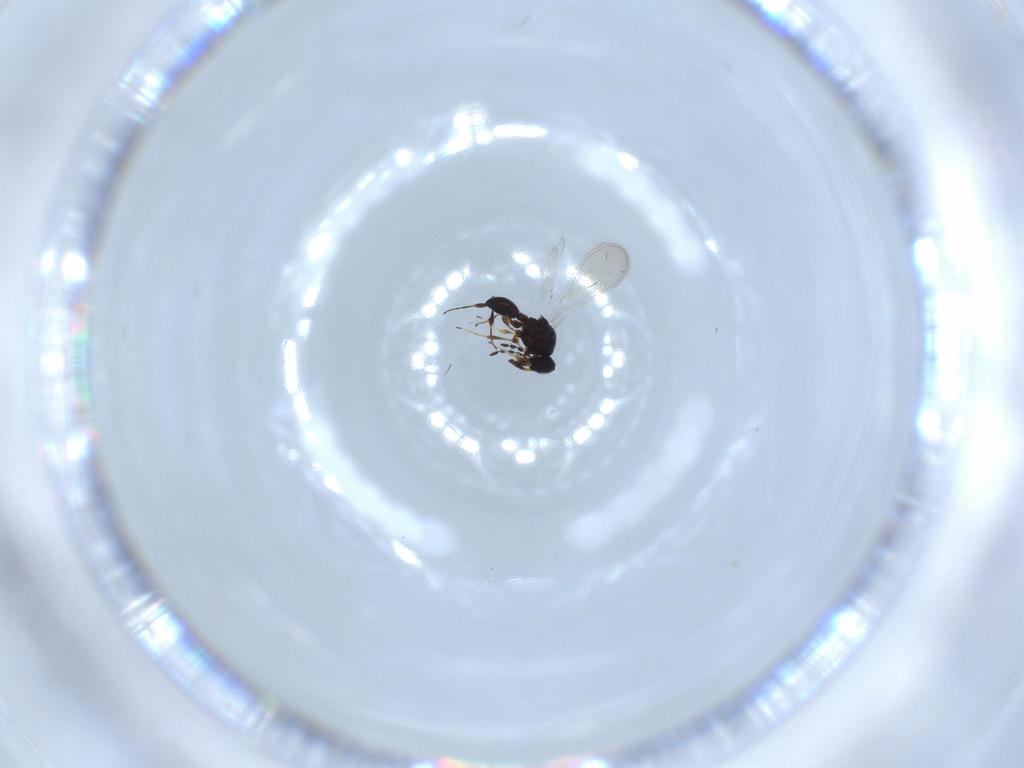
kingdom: Animalia
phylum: Arthropoda
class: Insecta
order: Hymenoptera
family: Platygastridae
